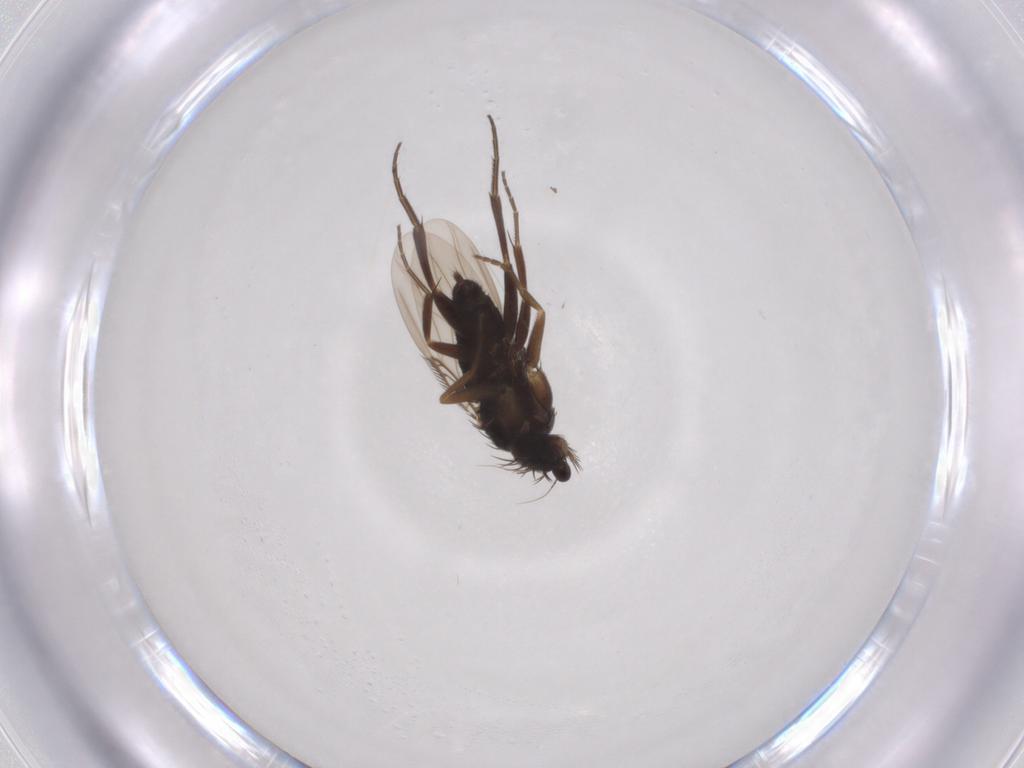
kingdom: Animalia
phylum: Arthropoda
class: Insecta
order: Diptera
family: Phoridae
